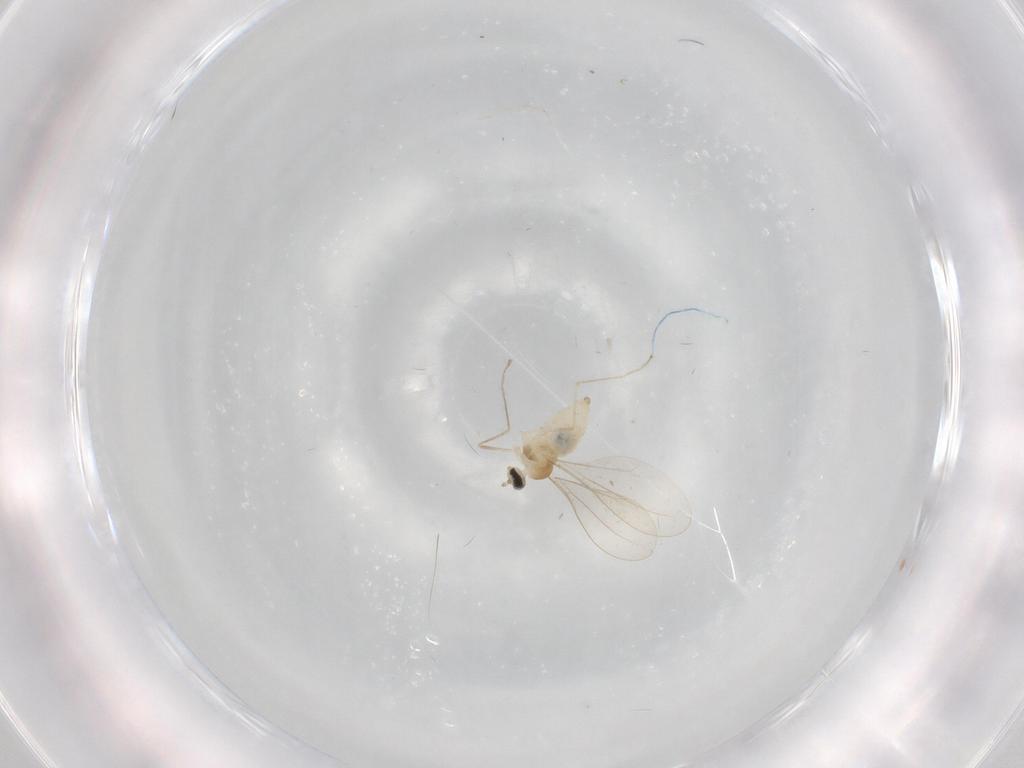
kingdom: Animalia
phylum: Arthropoda
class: Insecta
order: Diptera
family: Cecidomyiidae
